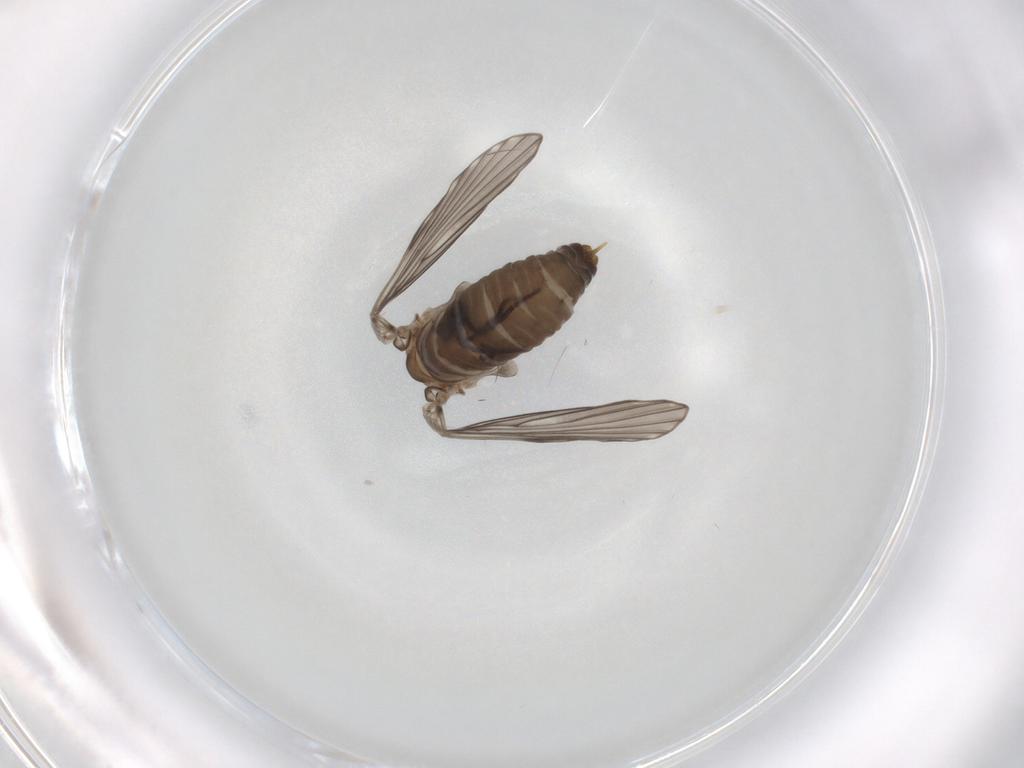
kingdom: Animalia
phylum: Arthropoda
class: Insecta
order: Diptera
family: Psychodidae
